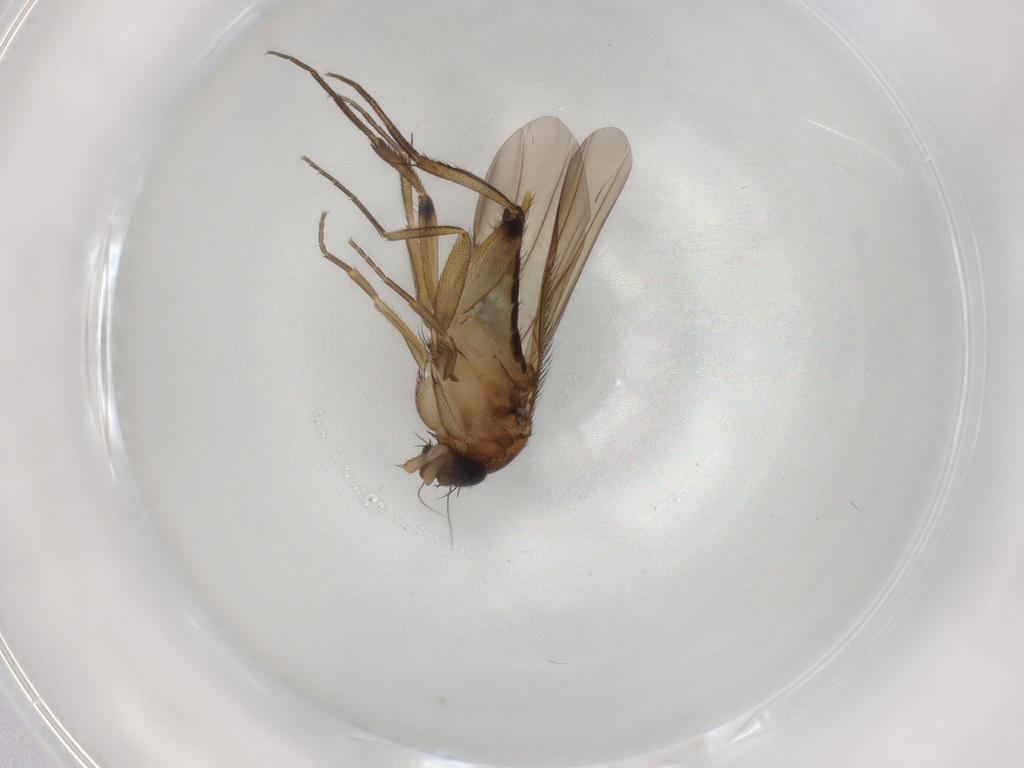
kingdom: Animalia
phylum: Arthropoda
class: Insecta
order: Diptera
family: Phoridae
